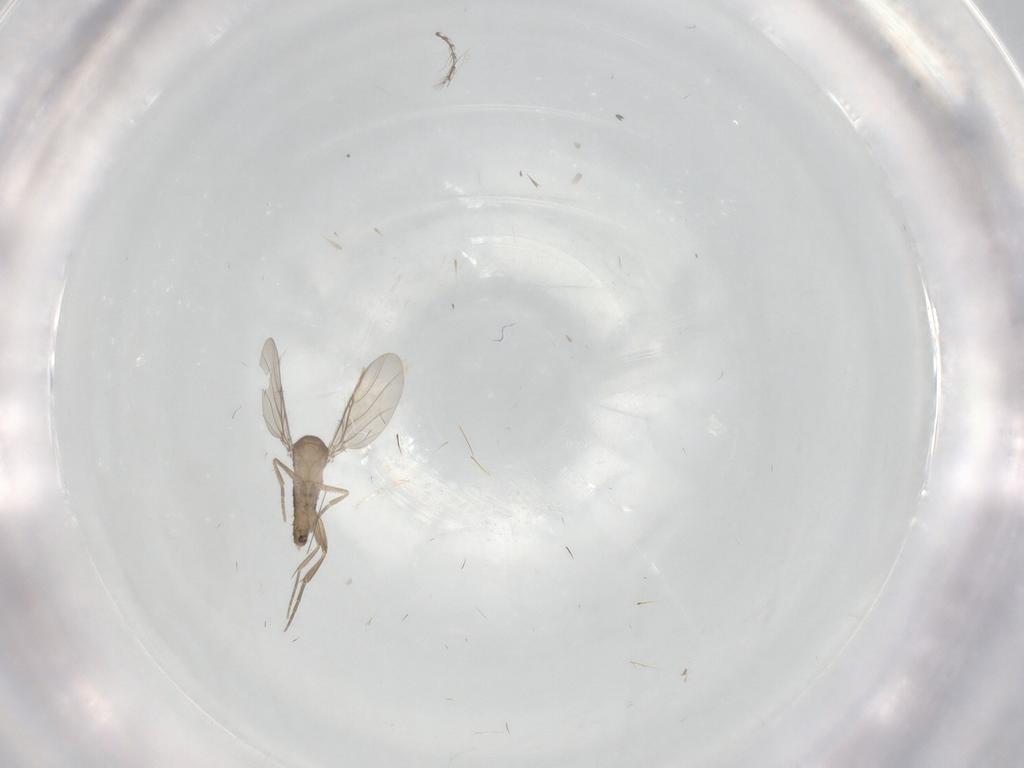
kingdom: Animalia
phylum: Arthropoda
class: Insecta
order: Diptera
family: Phoridae
